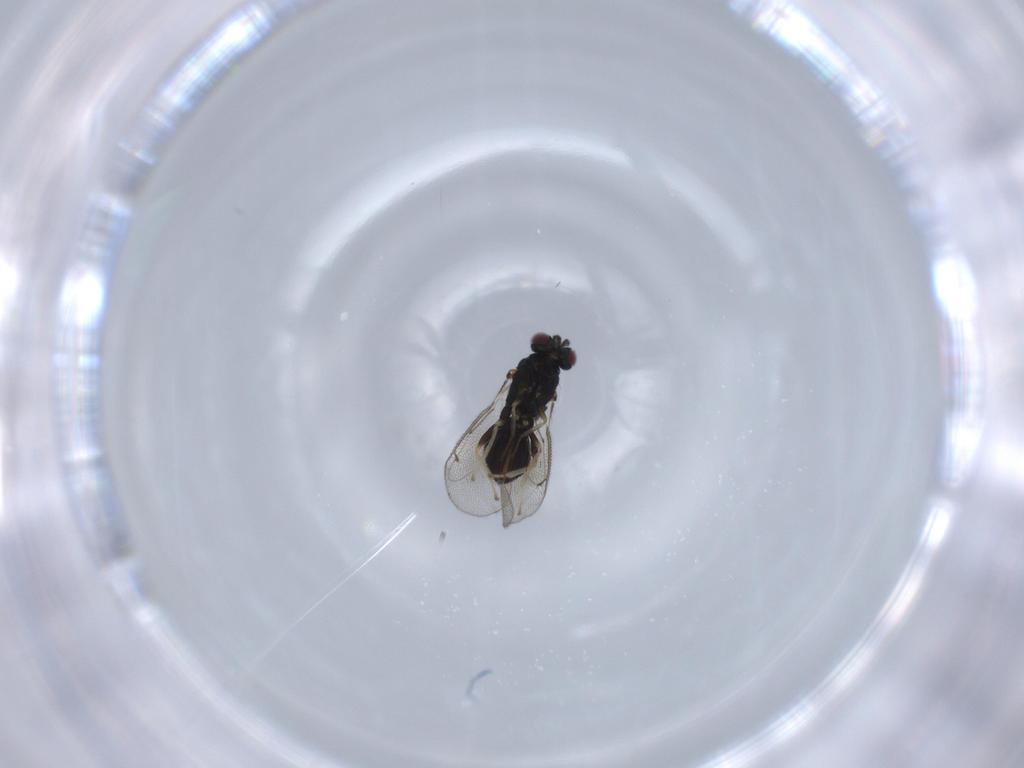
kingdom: Animalia
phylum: Arthropoda
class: Insecta
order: Hymenoptera
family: Eulophidae
